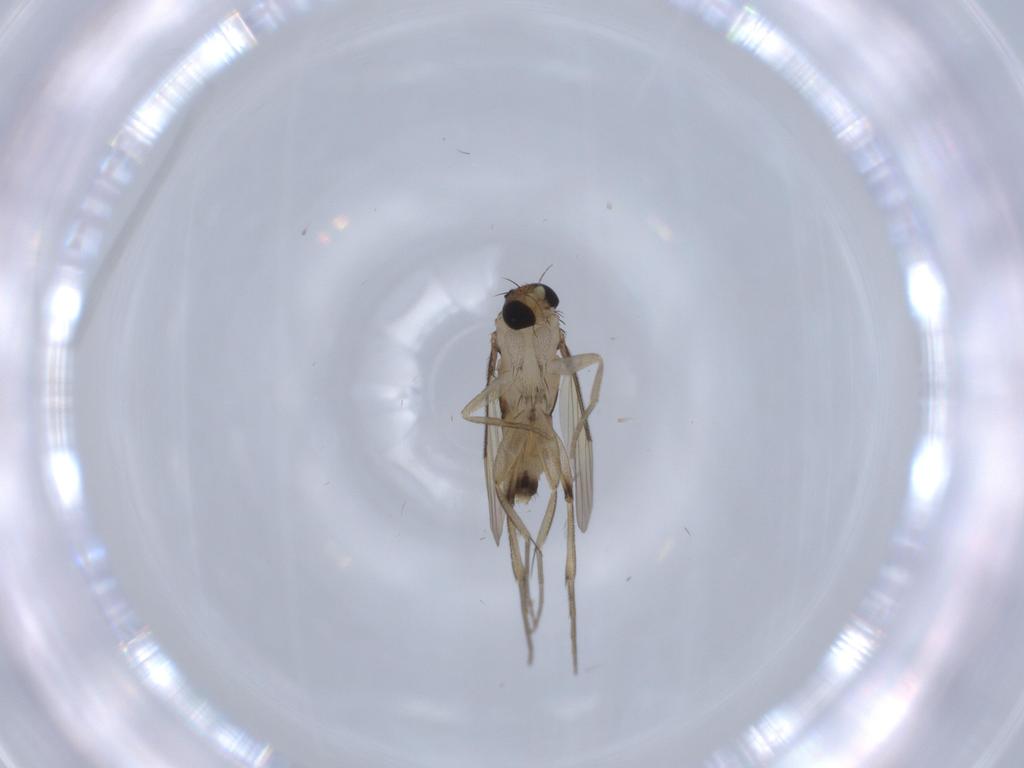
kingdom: Animalia
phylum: Arthropoda
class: Insecta
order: Diptera
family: Phoridae
